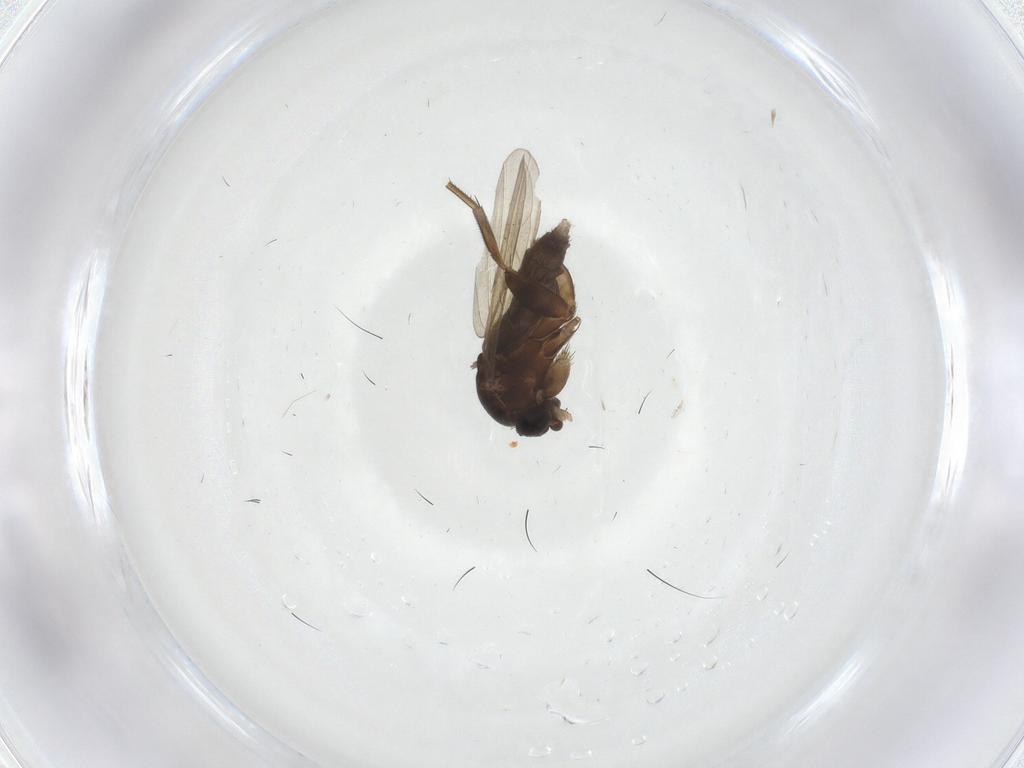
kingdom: Animalia
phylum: Arthropoda
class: Insecta
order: Diptera
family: Phoridae
